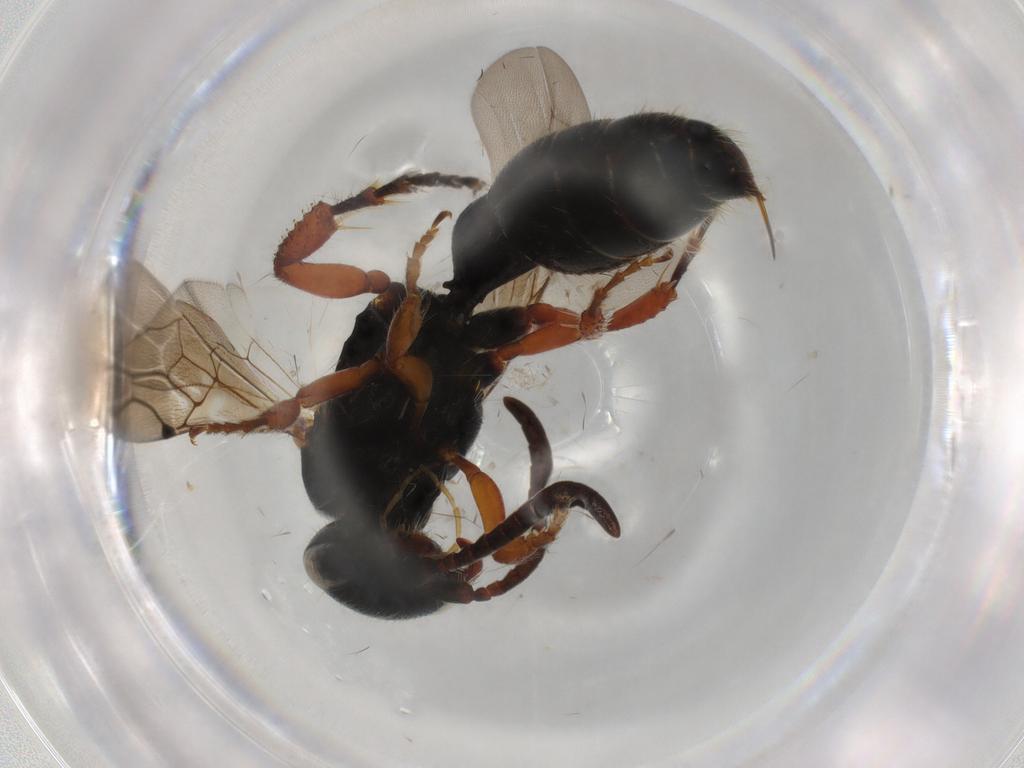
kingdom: Animalia
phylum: Arthropoda
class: Insecta
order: Hymenoptera
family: Tiphiidae
